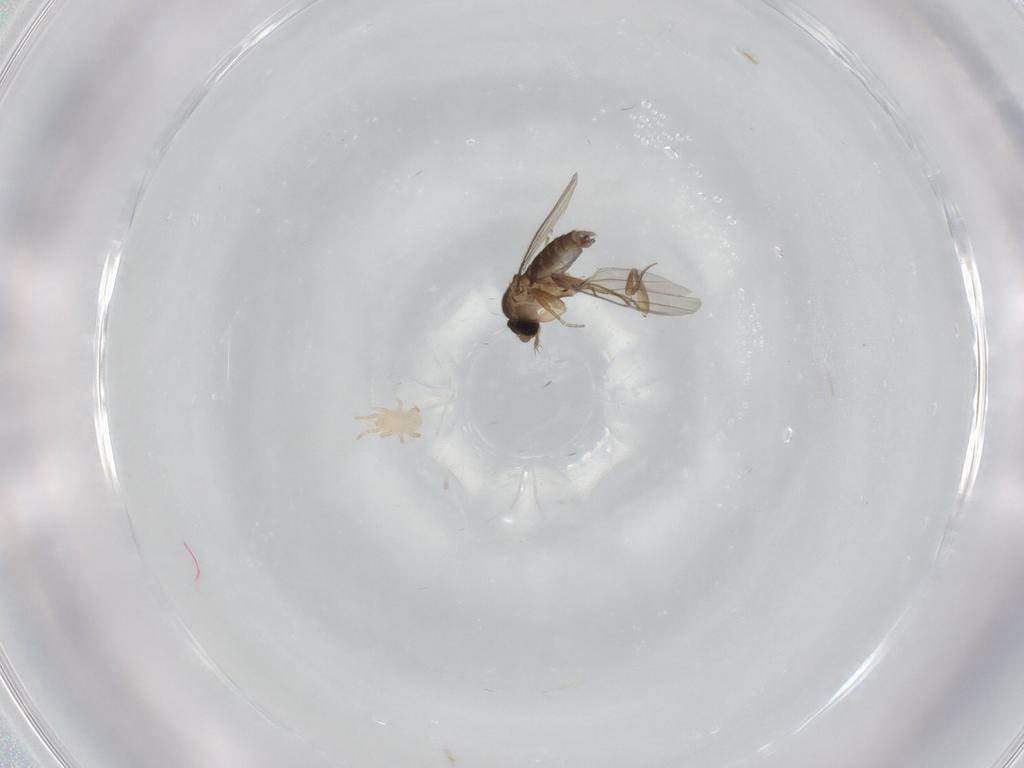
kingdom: Animalia
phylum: Arthropoda
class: Insecta
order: Diptera
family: Phoridae
